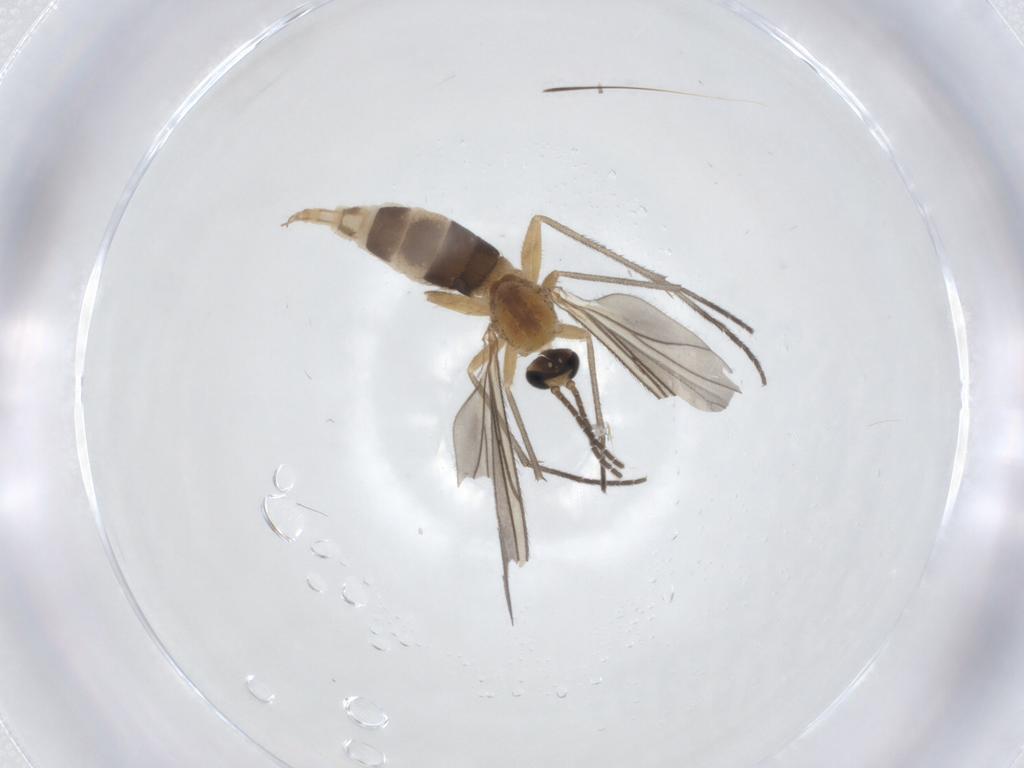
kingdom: Animalia
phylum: Arthropoda
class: Insecta
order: Diptera
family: Sciaridae
